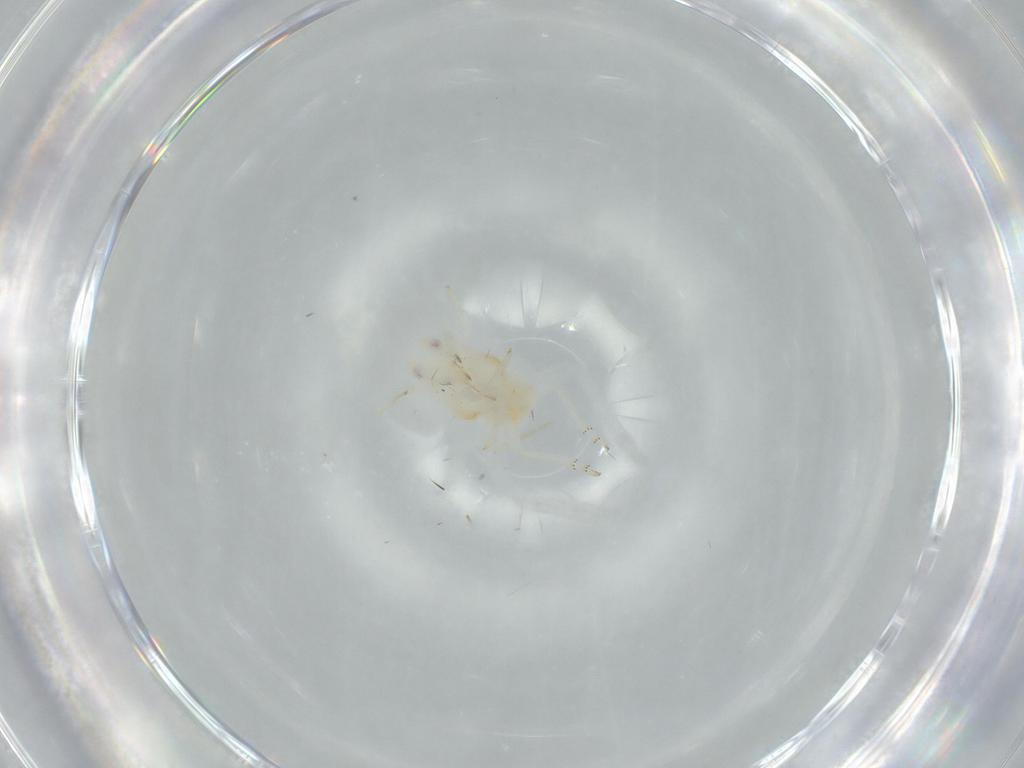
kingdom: Animalia
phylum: Arthropoda
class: Insecta
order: Hemiptera
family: Flatidae
